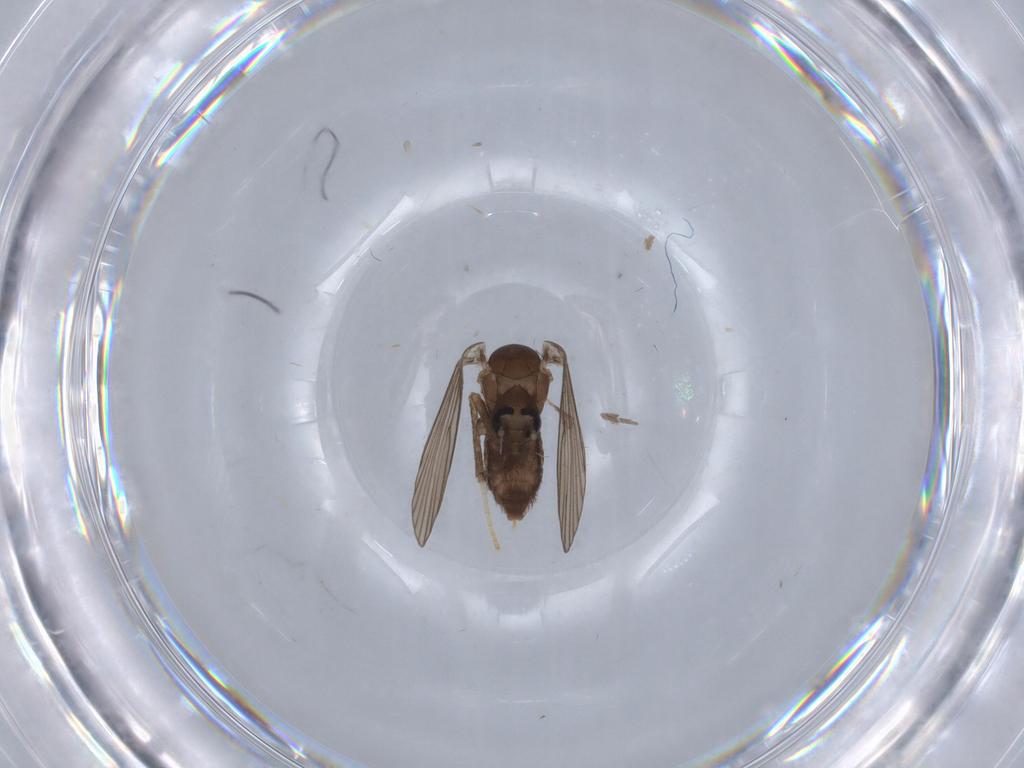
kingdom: Animalia
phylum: Arthropoda
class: Insecta
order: Diptera
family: Psychodidae
